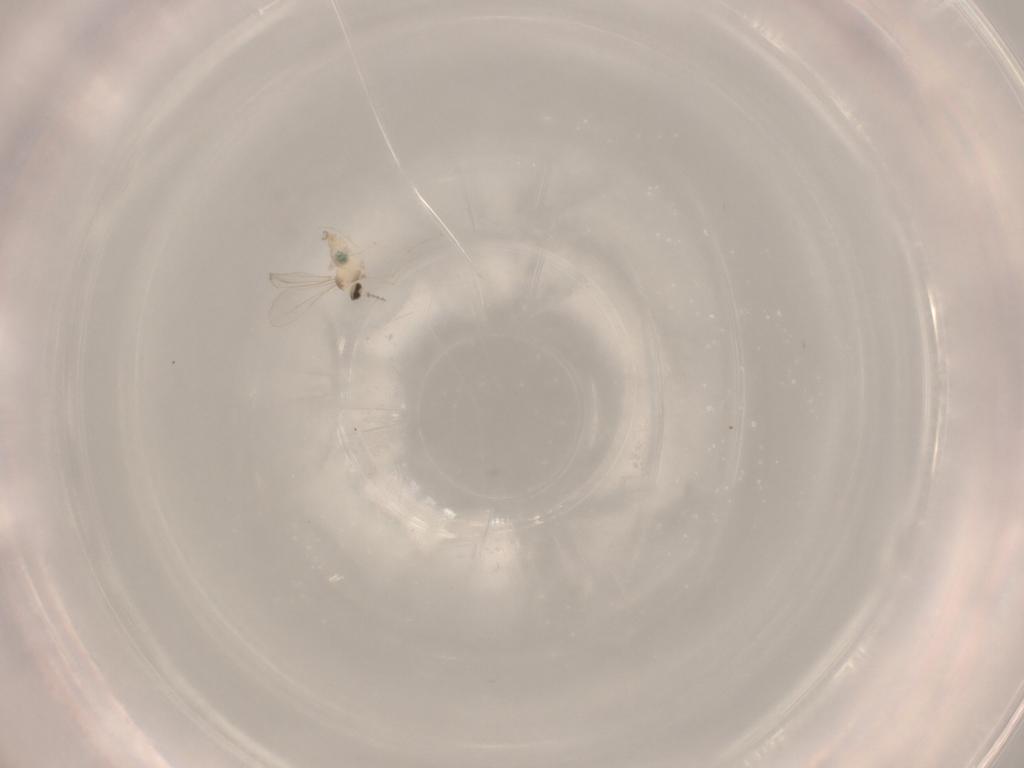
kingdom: Animalia
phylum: Arthropoda
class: Insecta
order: Diptera
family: Cecidomyiidae
